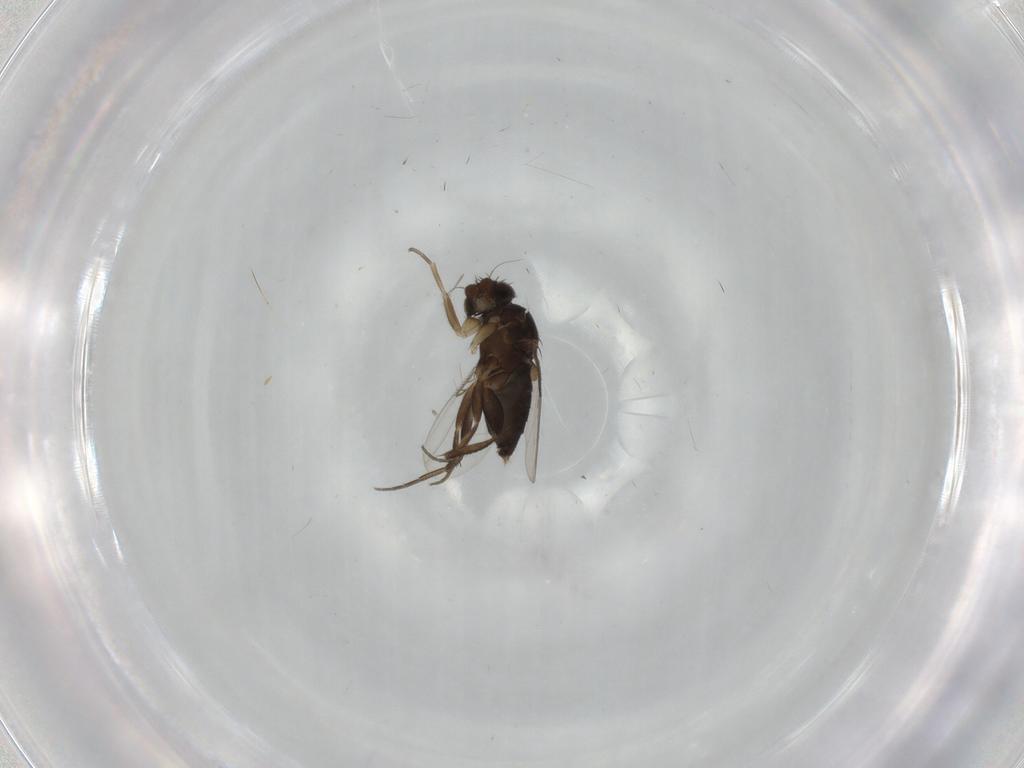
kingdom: Animalia
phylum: Arthropoda
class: Insecta
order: Diptera
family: Phoridae
